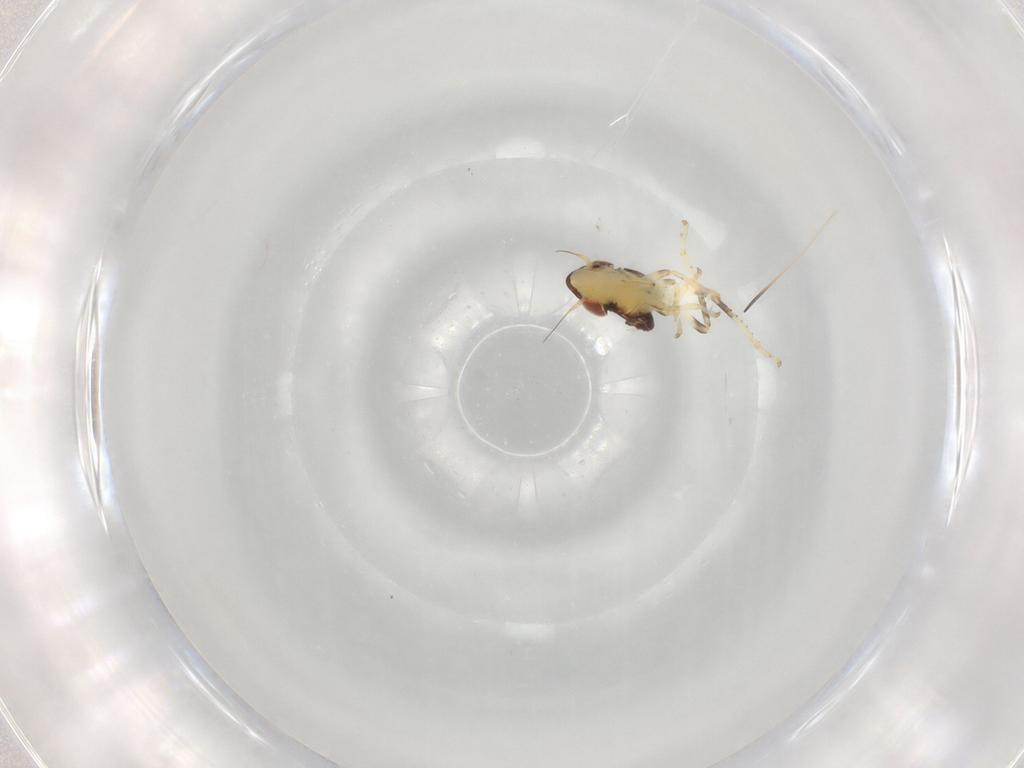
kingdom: Animalia
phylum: Arthropoda
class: Insecta
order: Hemiptera
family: Cicadellidae
